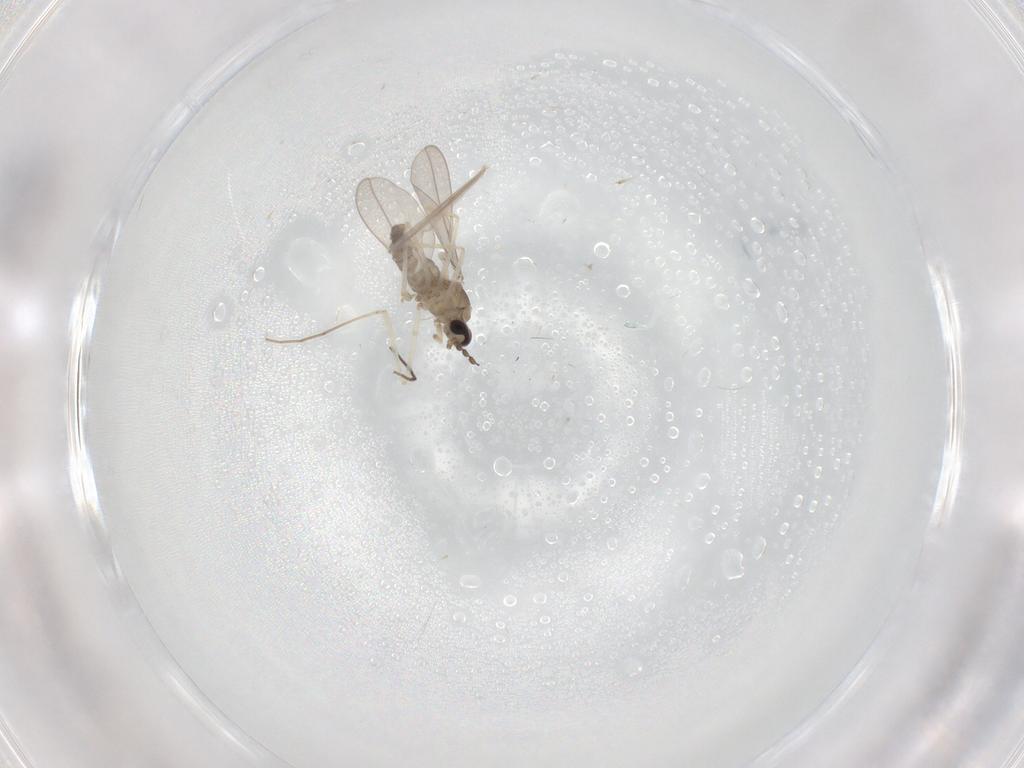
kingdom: Animalia
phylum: Arthropoda
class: Insecta
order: Diptera
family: Cecidomyiidae
